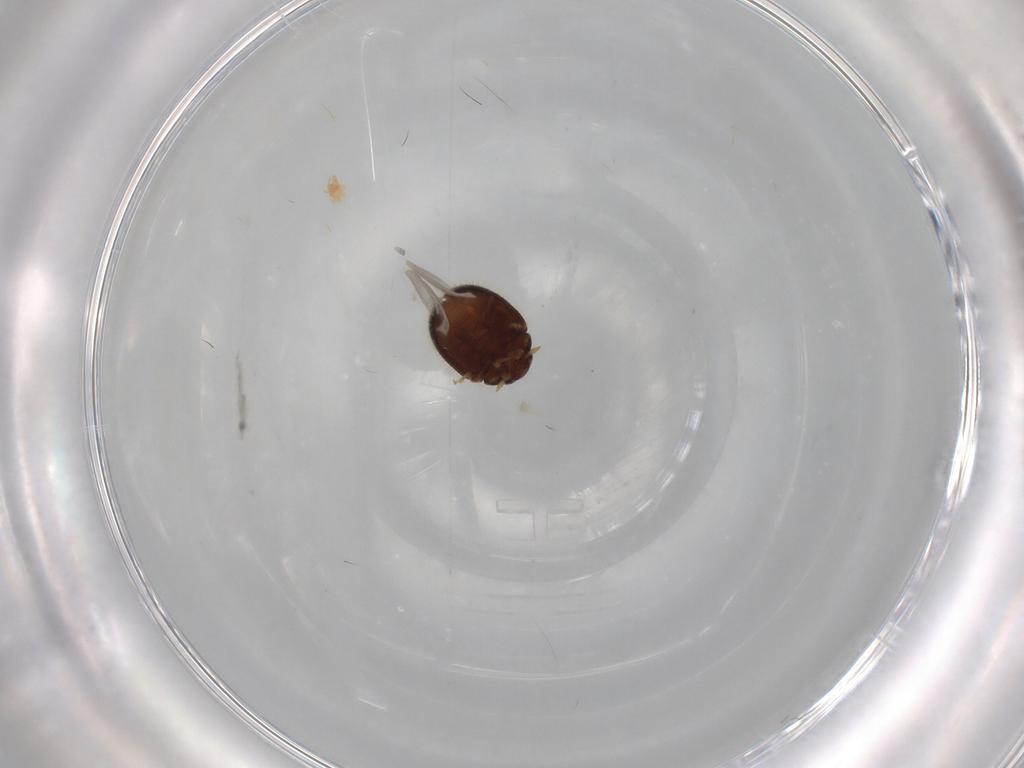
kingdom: Animalia
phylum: Arthropoda
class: Insecta
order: Coleoptera
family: Coccinellidae
